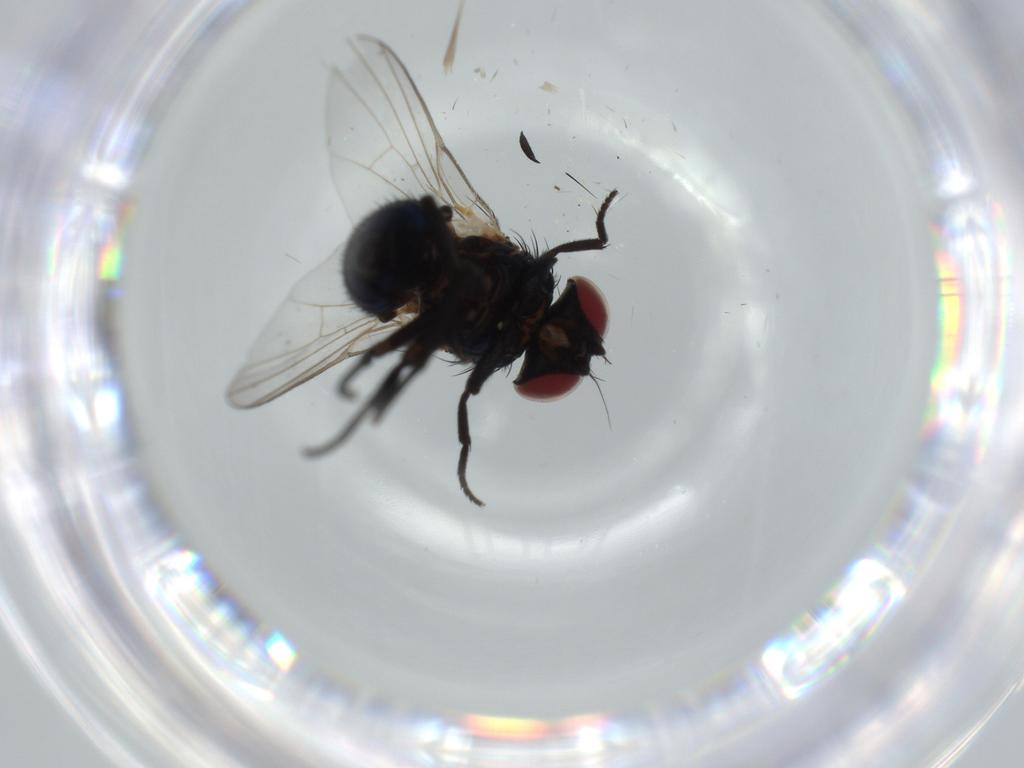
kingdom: Animalia
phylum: Arthropoda
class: Insecta
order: Diptera
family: Agromyzidae
